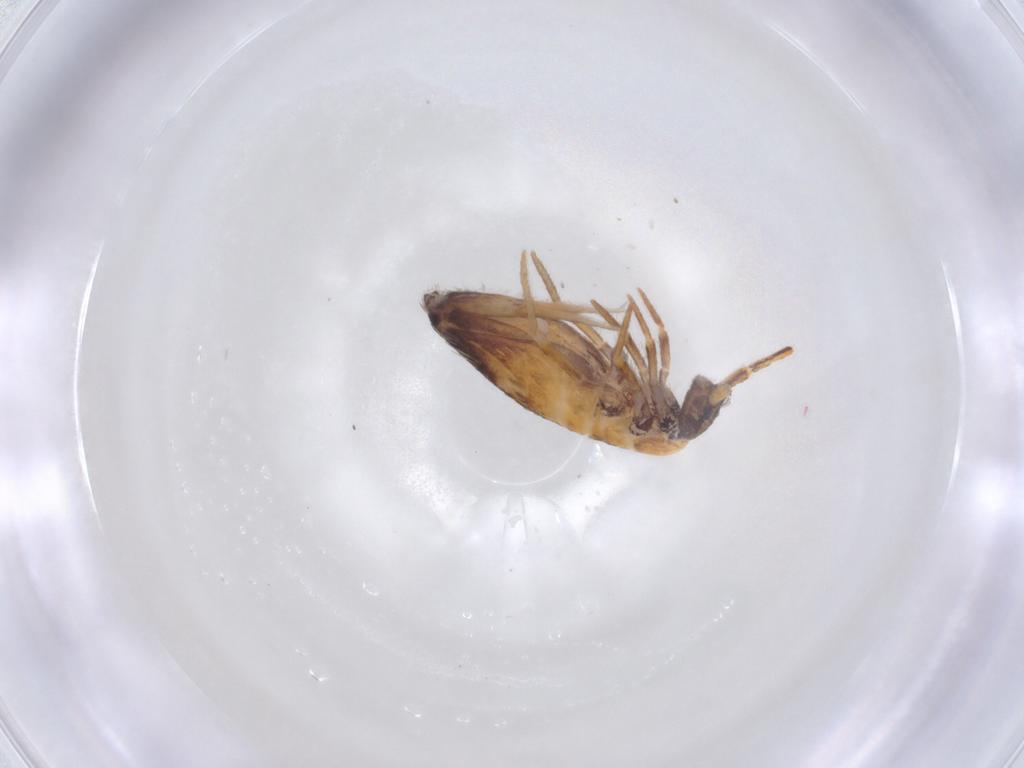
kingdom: Animalia
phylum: Arthropoda
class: Collembola
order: Entomobryomorpha
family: Entomobryidae
